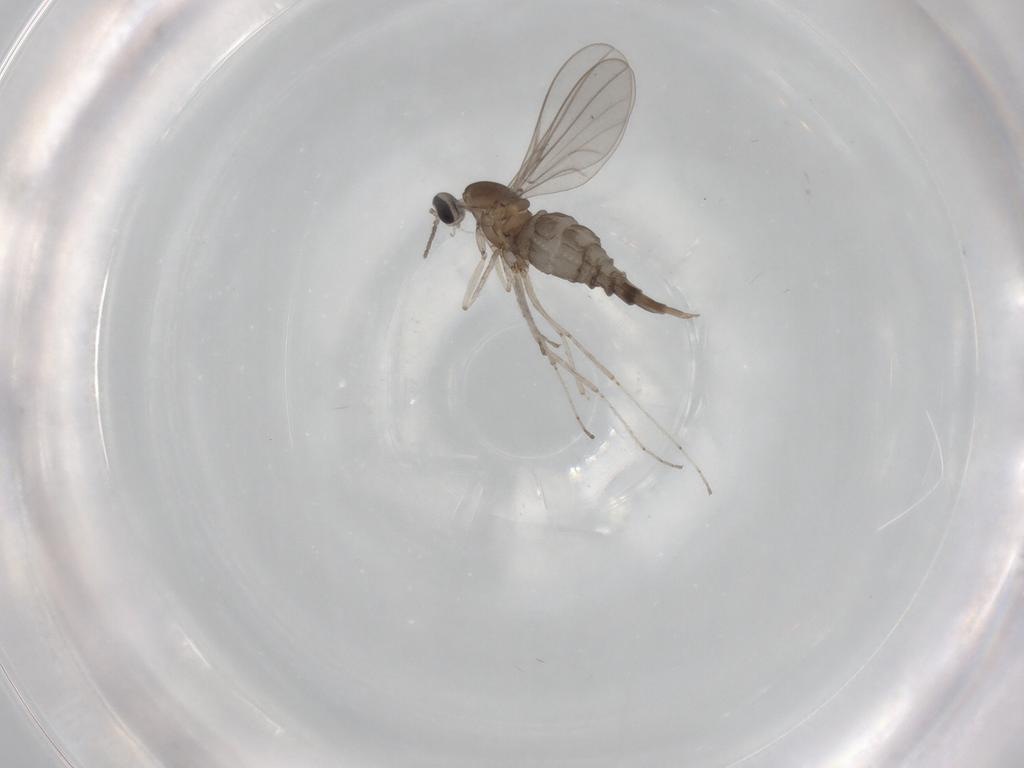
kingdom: Animalia
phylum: Arthropoda
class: Insecta
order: Diptera
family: Cecidomyiidae
